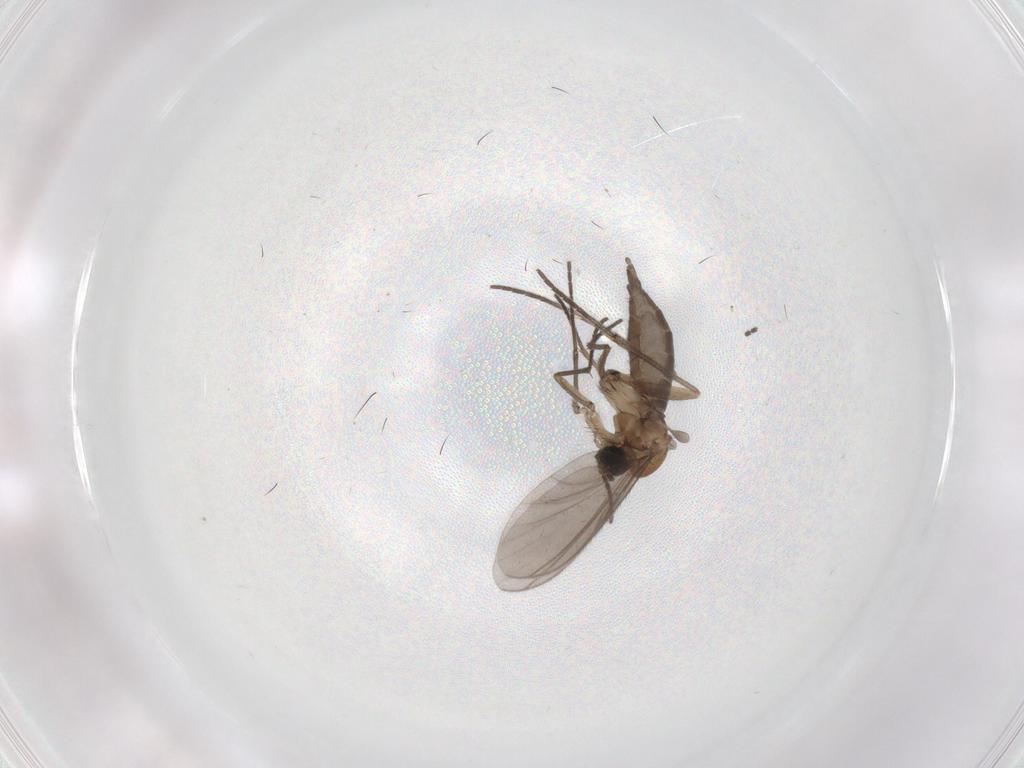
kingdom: Animalia
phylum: Arthropoda
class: Insecta
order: Diptera
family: Sciaridae
